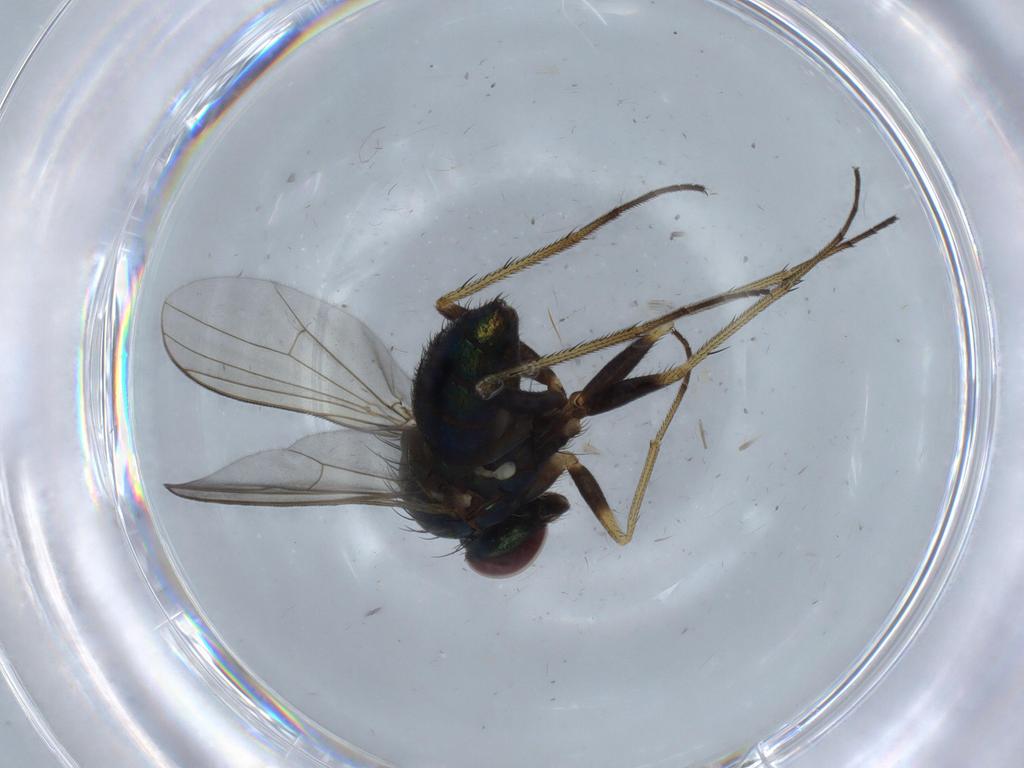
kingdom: Animalia
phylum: Arthropoda
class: Insecta
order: Diptera
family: Dolichopodidae
